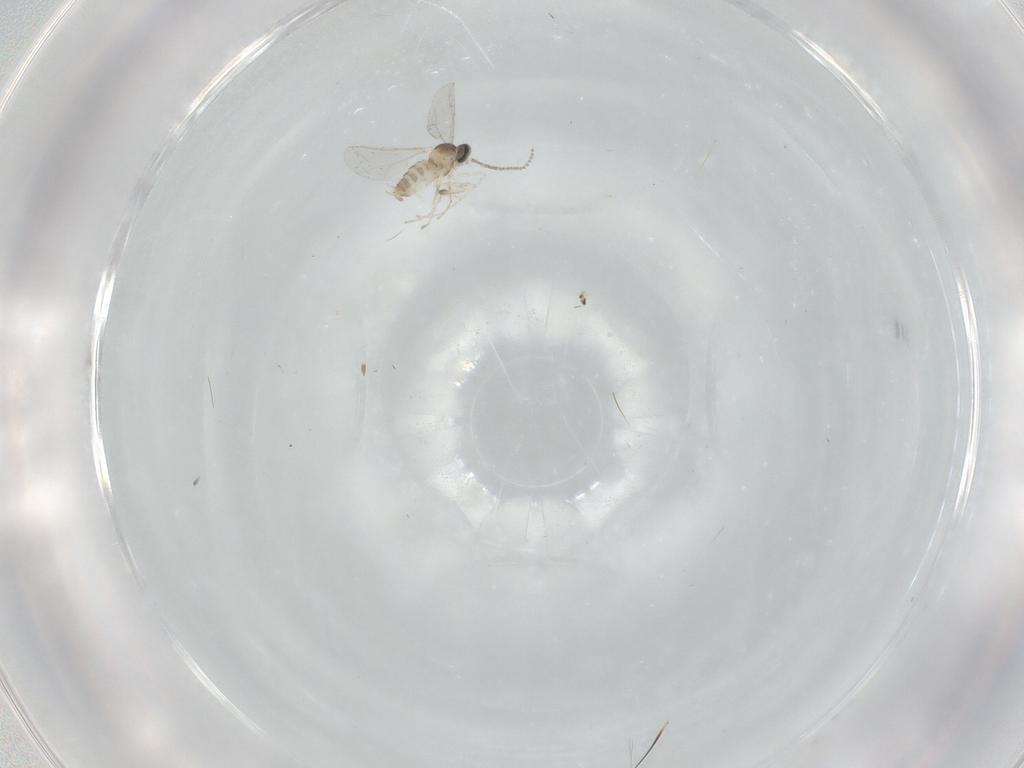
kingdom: Animalia
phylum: Arthropoda
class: Insecta
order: Diptera
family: Cecidomyiidae
